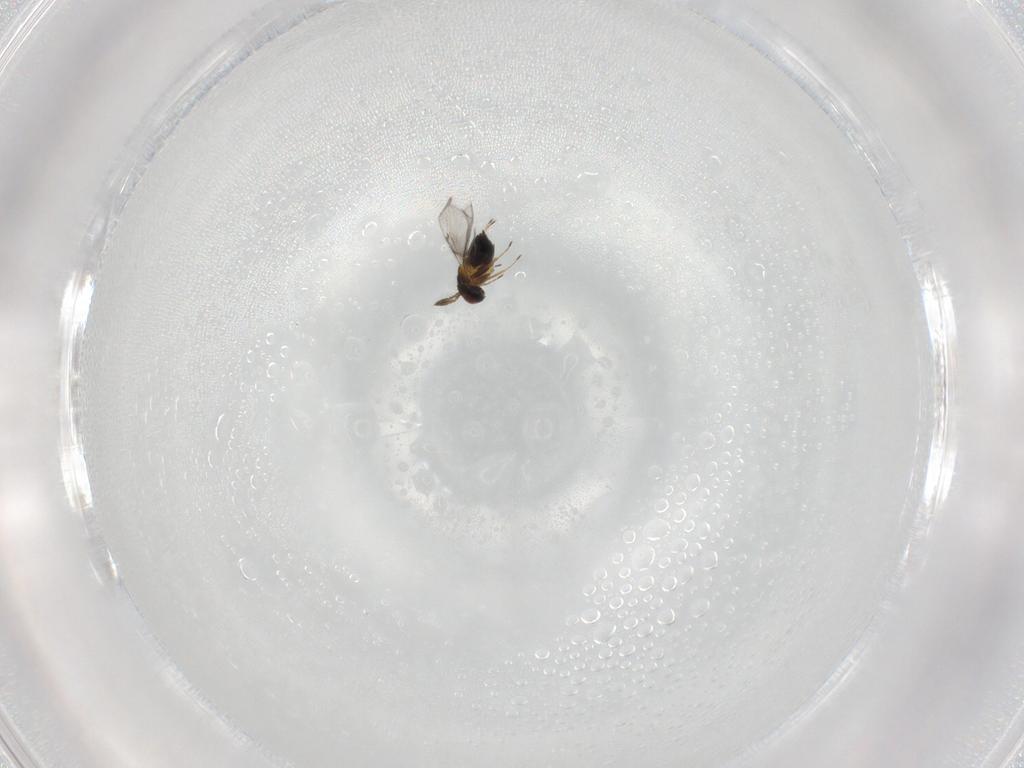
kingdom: Animalia
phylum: Arthropoda
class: Insecta
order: Hymenoptera
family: Trichogrammatidae
